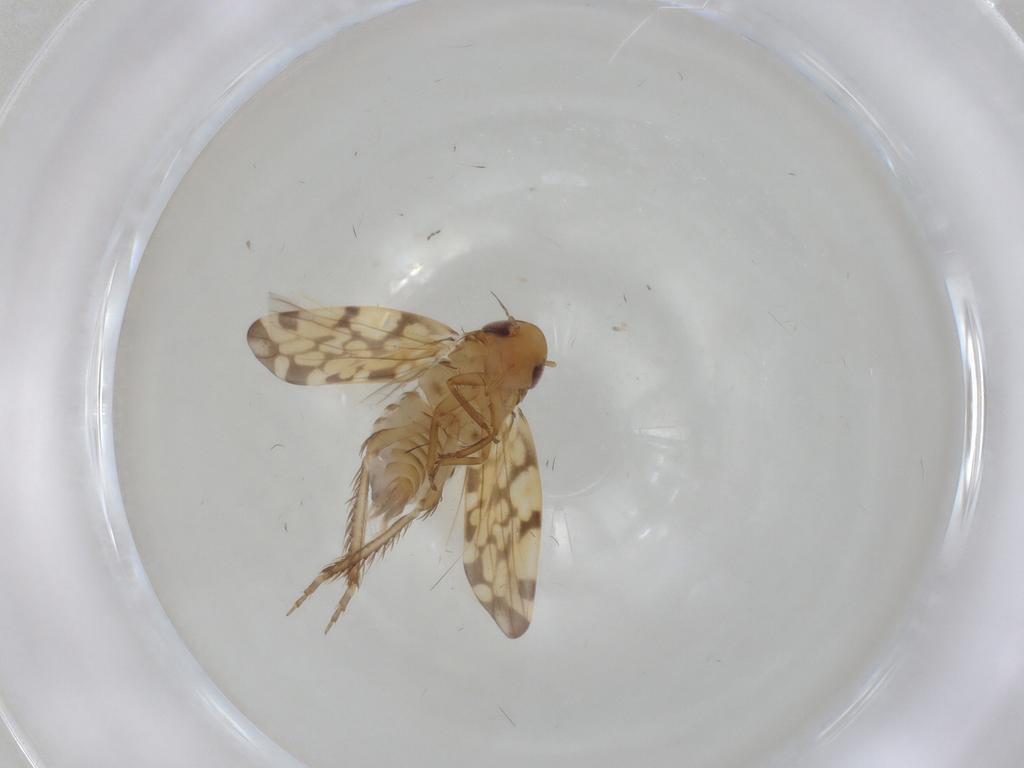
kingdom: Animalia
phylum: Arthropoda
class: Insecta
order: Hemiptera
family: Cicadellidae
